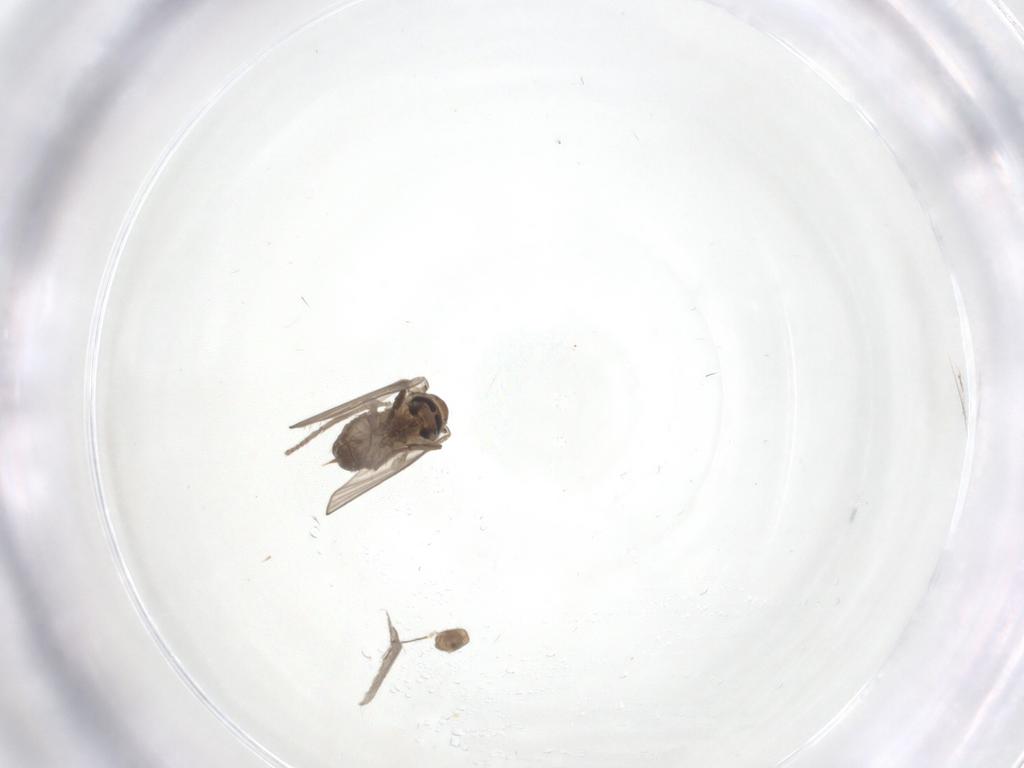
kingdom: Animalia
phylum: Arthropoda
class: Insecta
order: Diptera
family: Psychodidae
